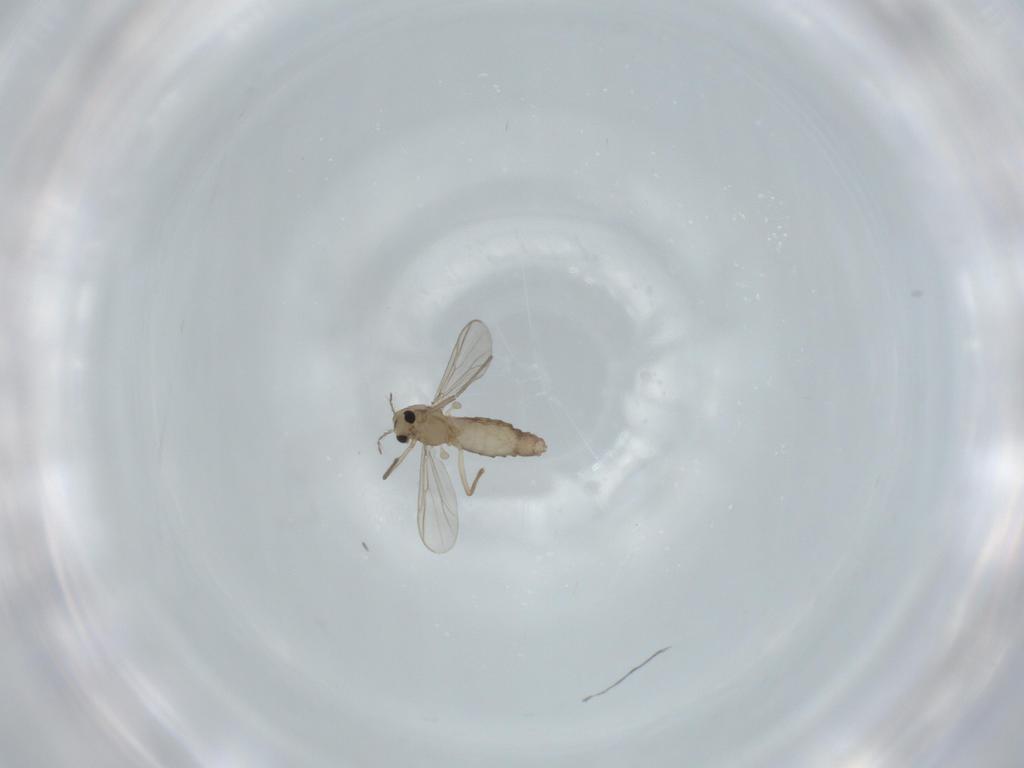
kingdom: Animalia
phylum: Arthropoda
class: Insecta
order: Diptera
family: Chironomidae
